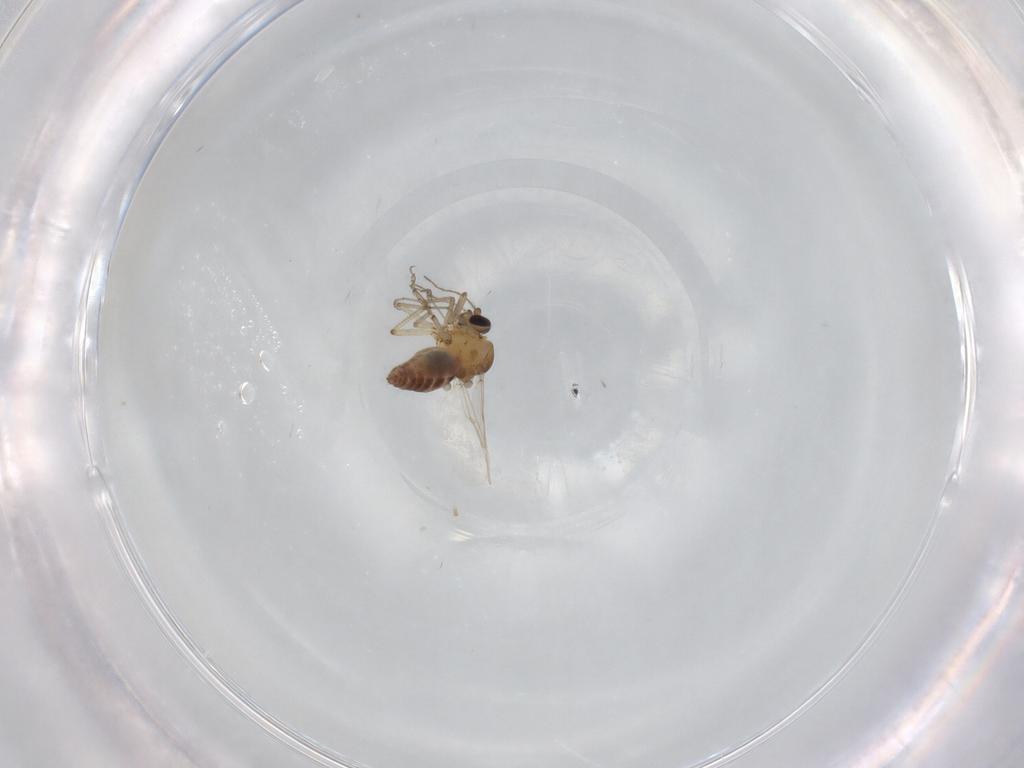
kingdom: Animalia
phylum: Arthropoda
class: Insecta
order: Diptera
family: Ceratopogonidae
